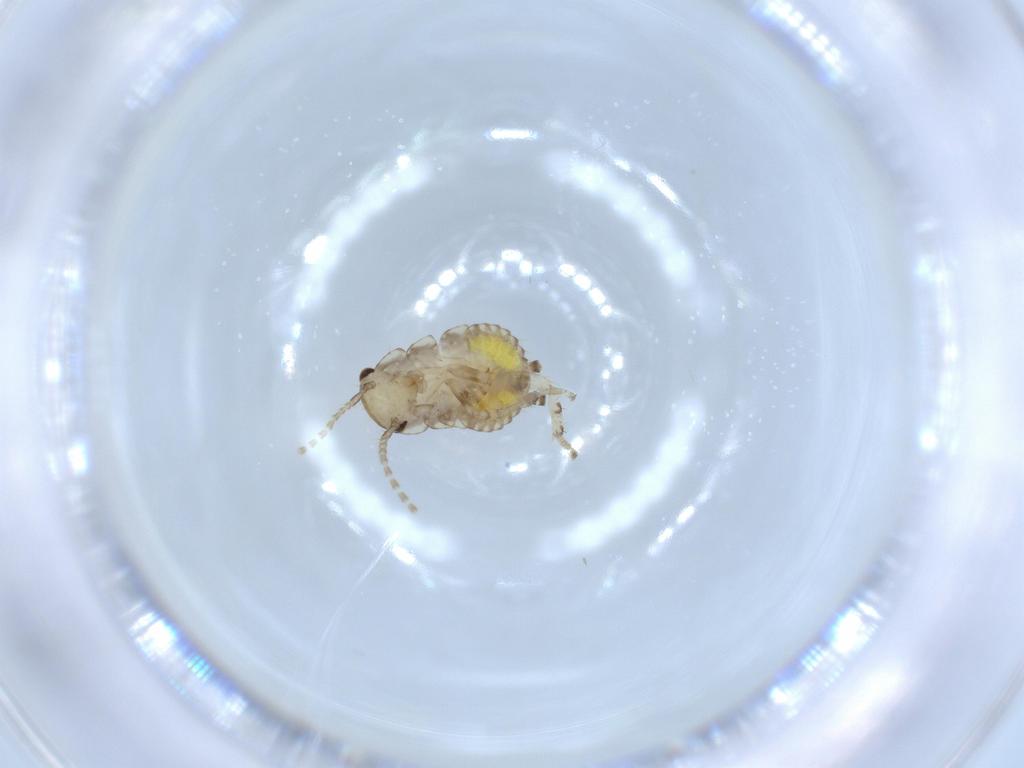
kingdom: Animalia
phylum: Arthropoda
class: Insecta
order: Blattodea
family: Ectobiidae
